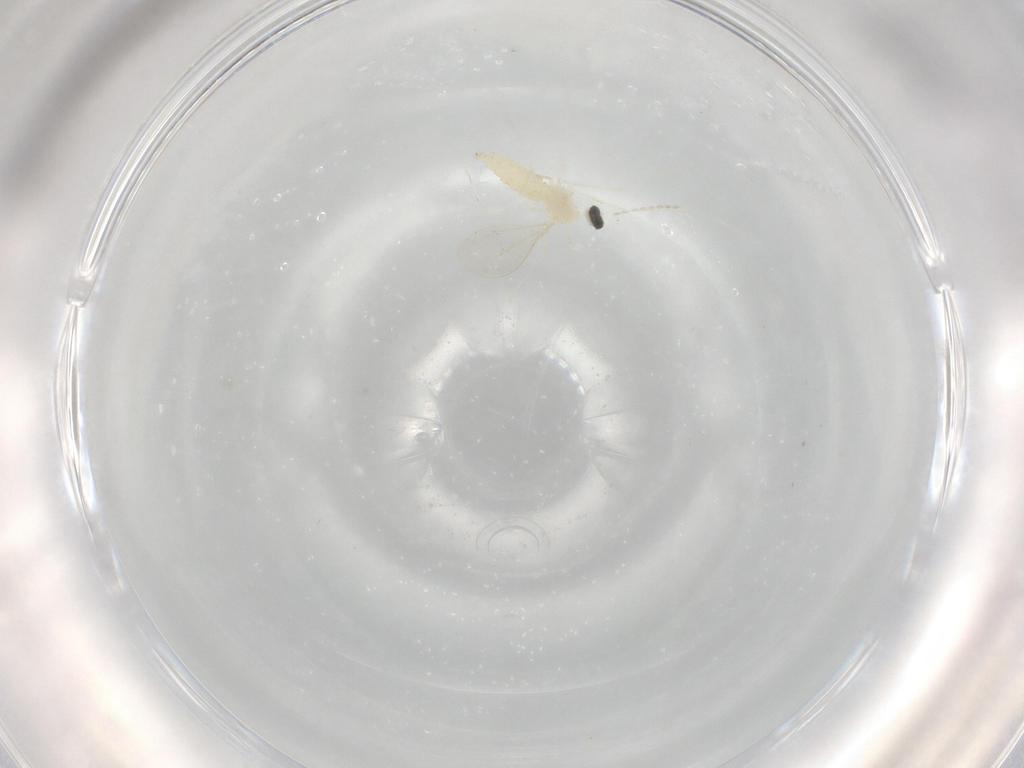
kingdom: Animalia
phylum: Arthropoda
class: Insecta
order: Diptera
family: Cecidomyiidae
